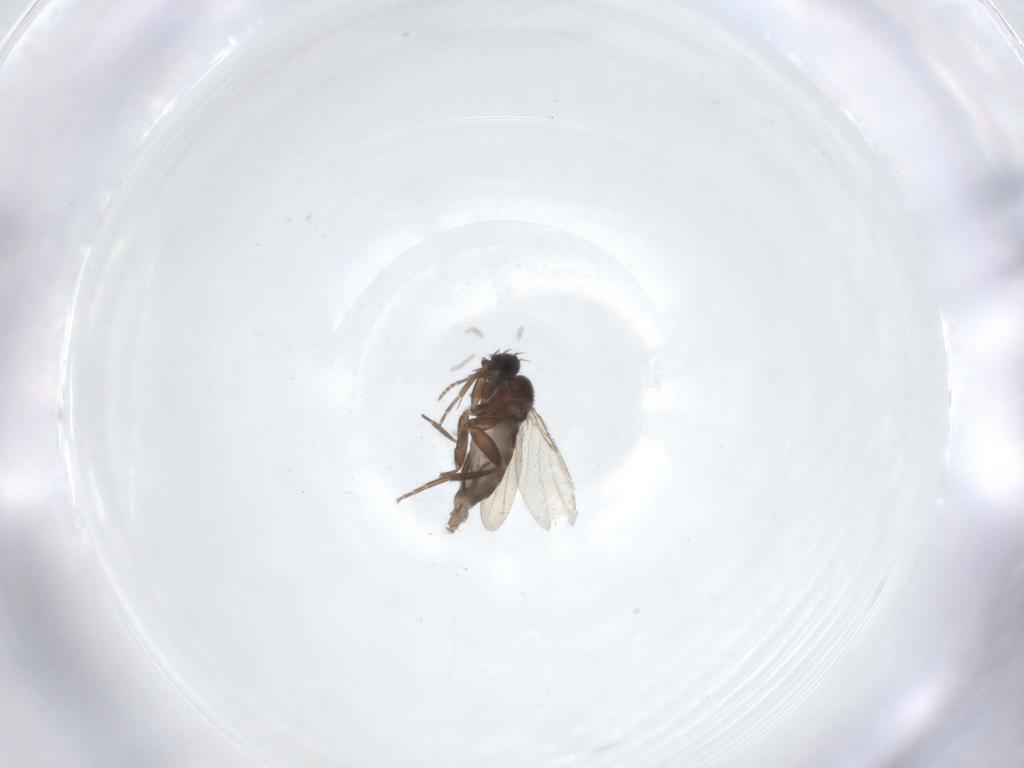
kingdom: Animalia
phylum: Arthropoda
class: Insecta
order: Diptera
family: Phoridae
